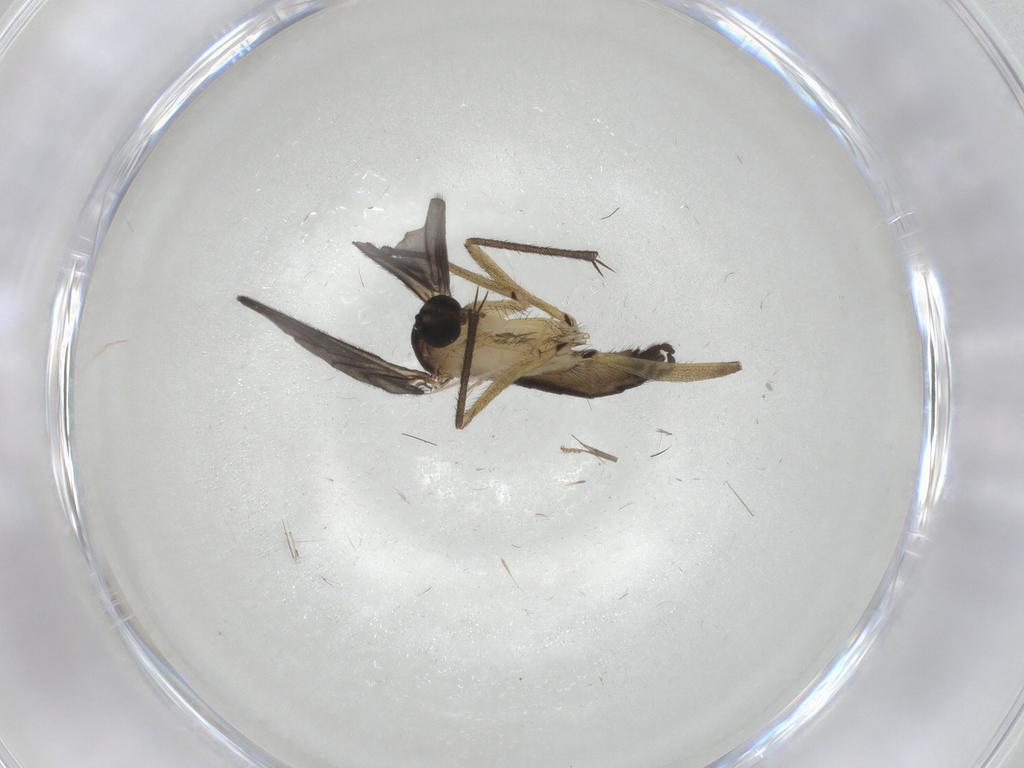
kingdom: Animalia
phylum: Arthropoda
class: Insecta
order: Diptera
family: Sciaridae
